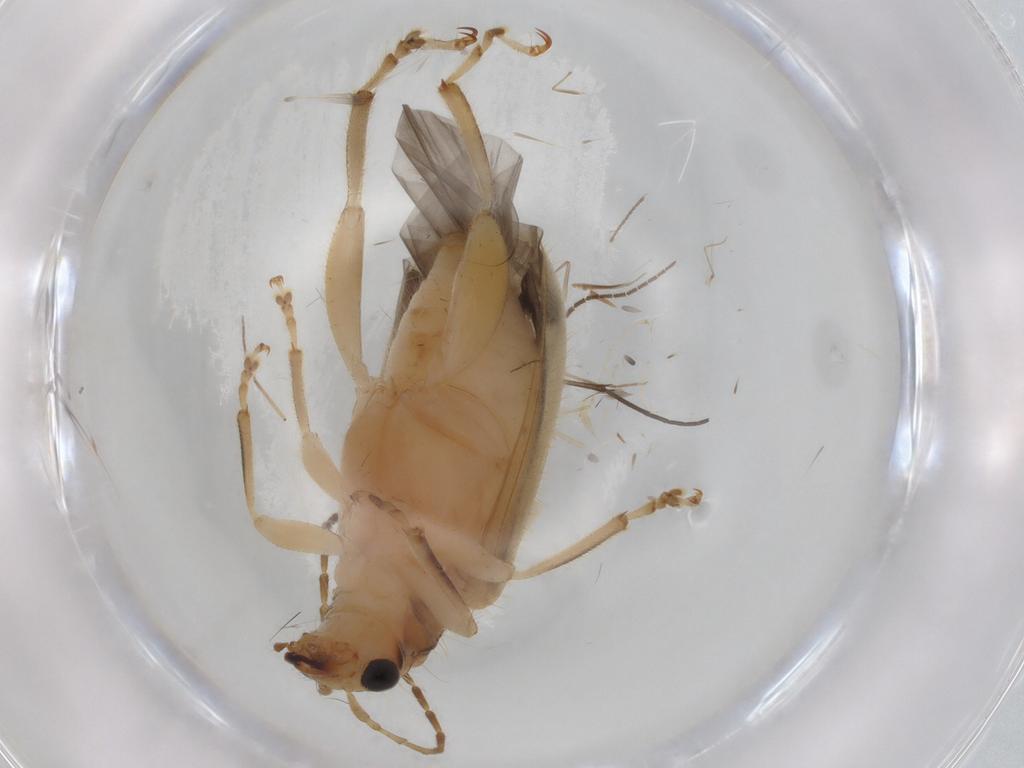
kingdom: Animalia
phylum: Arthropoda
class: Insecta
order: Coleoptera
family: Chrysomelidae
